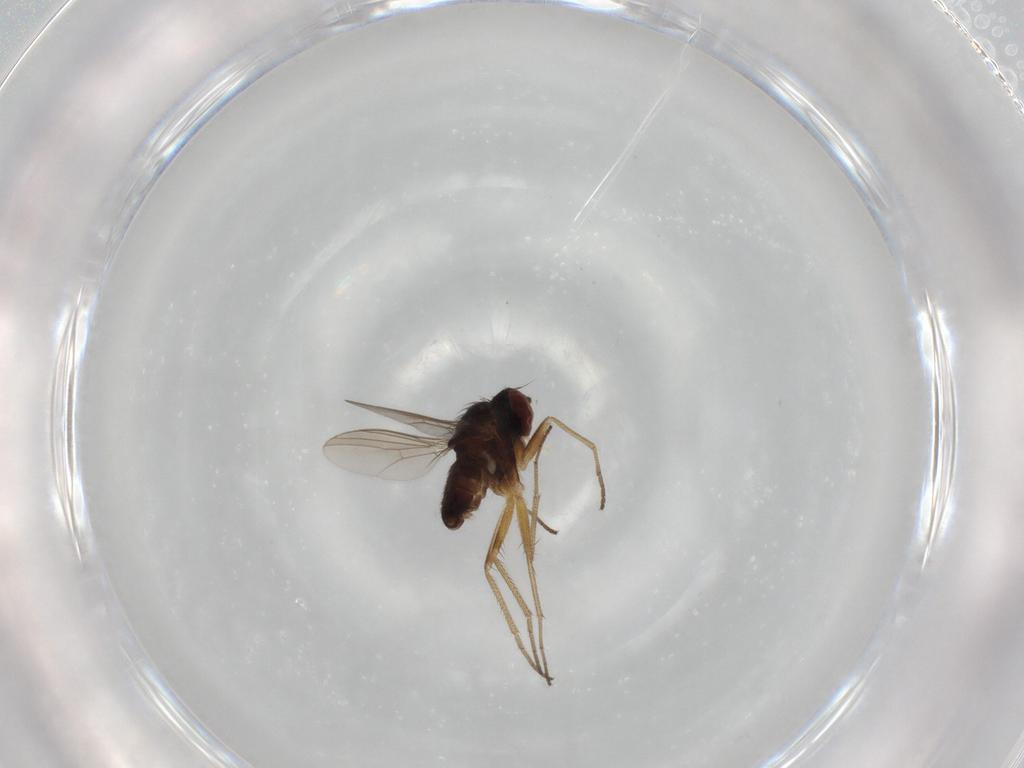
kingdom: Animalia
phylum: Arthropoda
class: Insecta
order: Diptera
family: Dolichopodidae
